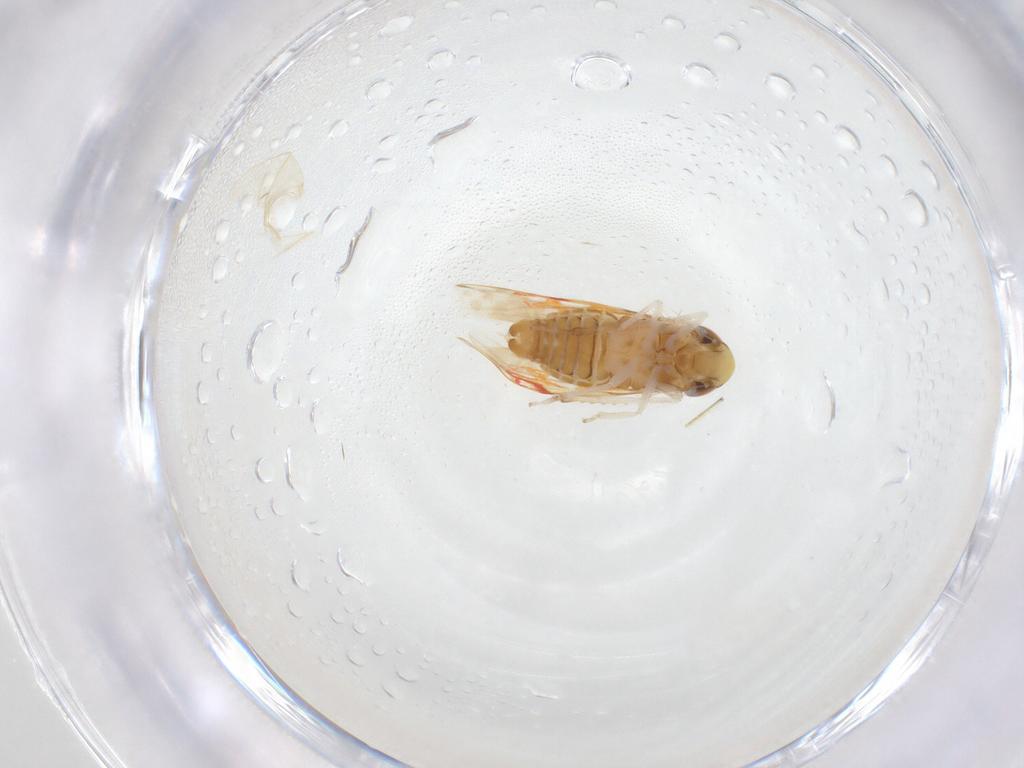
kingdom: Animalia
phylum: Arthropoda
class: Insecta
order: Hemiptera
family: Cicadellidae
